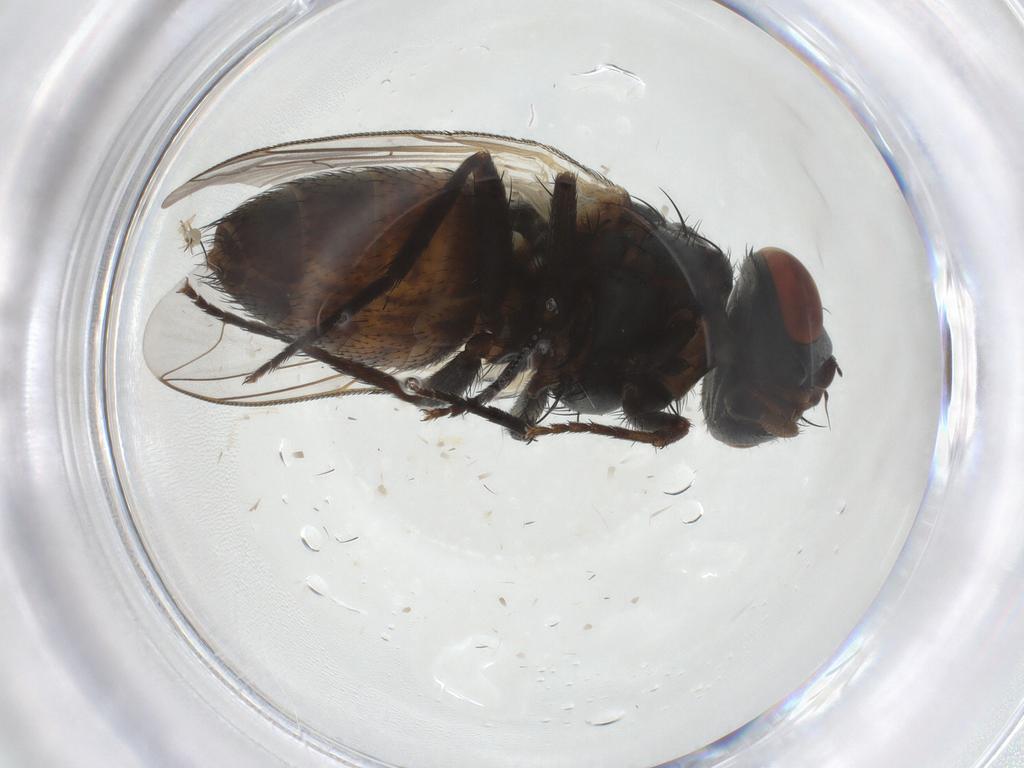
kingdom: Animalia
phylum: Arthropoda
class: Insecta
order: Diptera
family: Sarcophagidae
